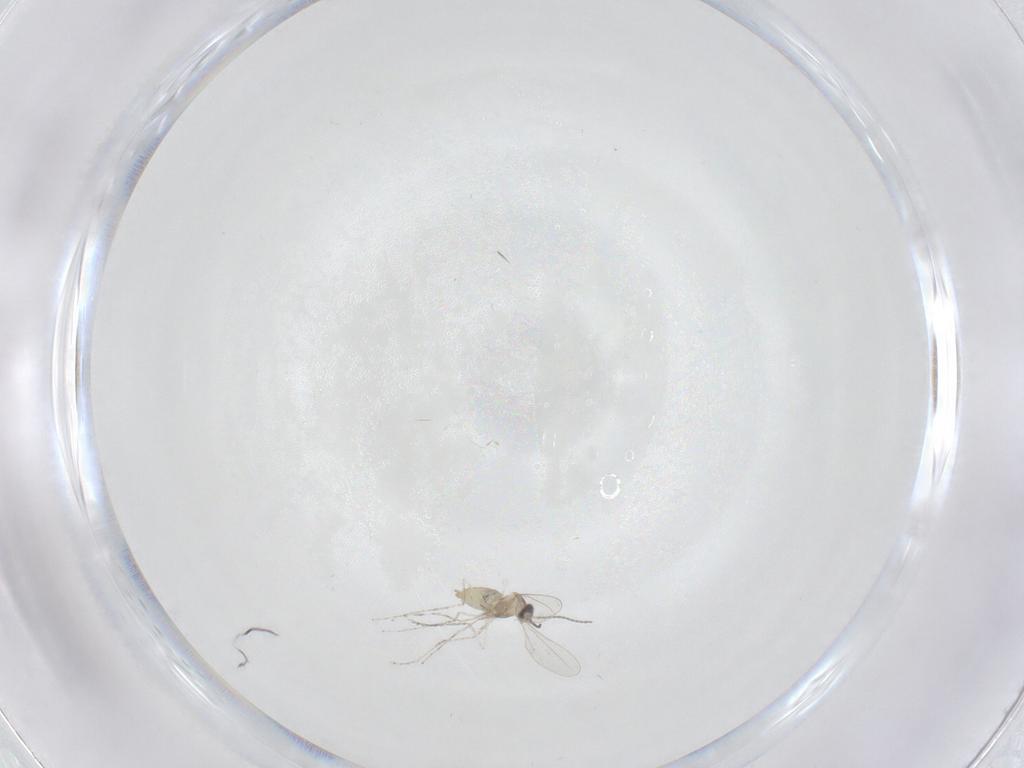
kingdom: Animalia
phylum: Arthropoda
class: Insecta
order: Diptera
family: Cecidomyiidae
